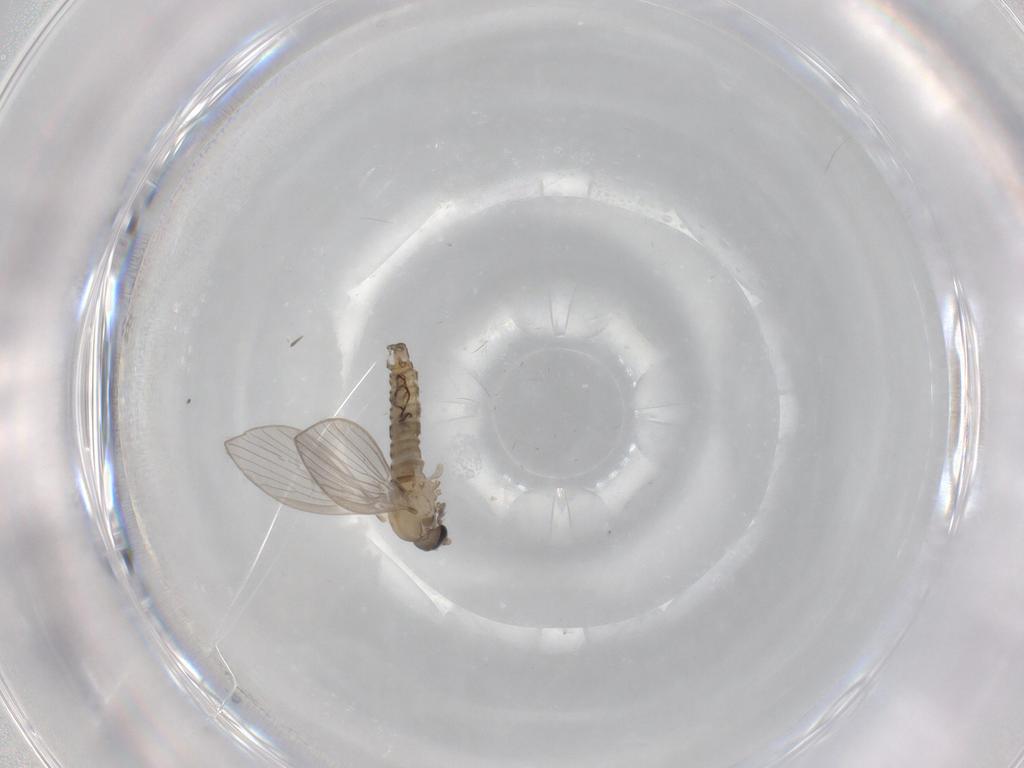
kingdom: Animalia
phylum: Arthropoda
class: Insecta
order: Diptera
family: Psychodidae
